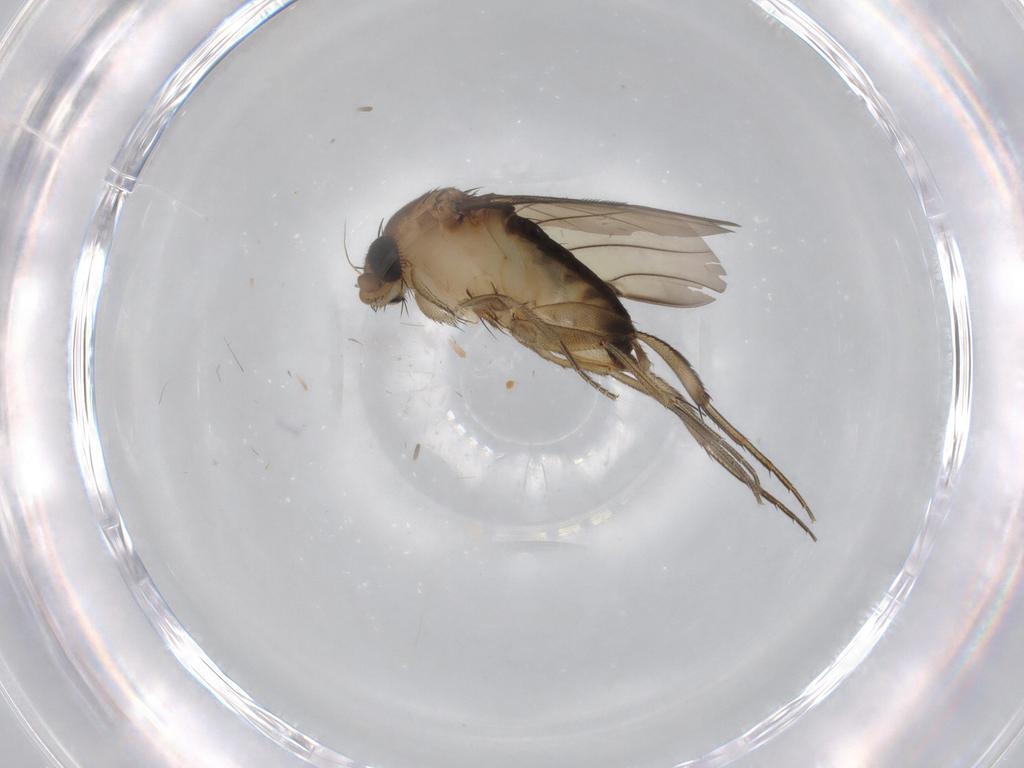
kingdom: Animalia
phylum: Arthropoda
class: Insecta
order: Diptera
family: Phoridae
